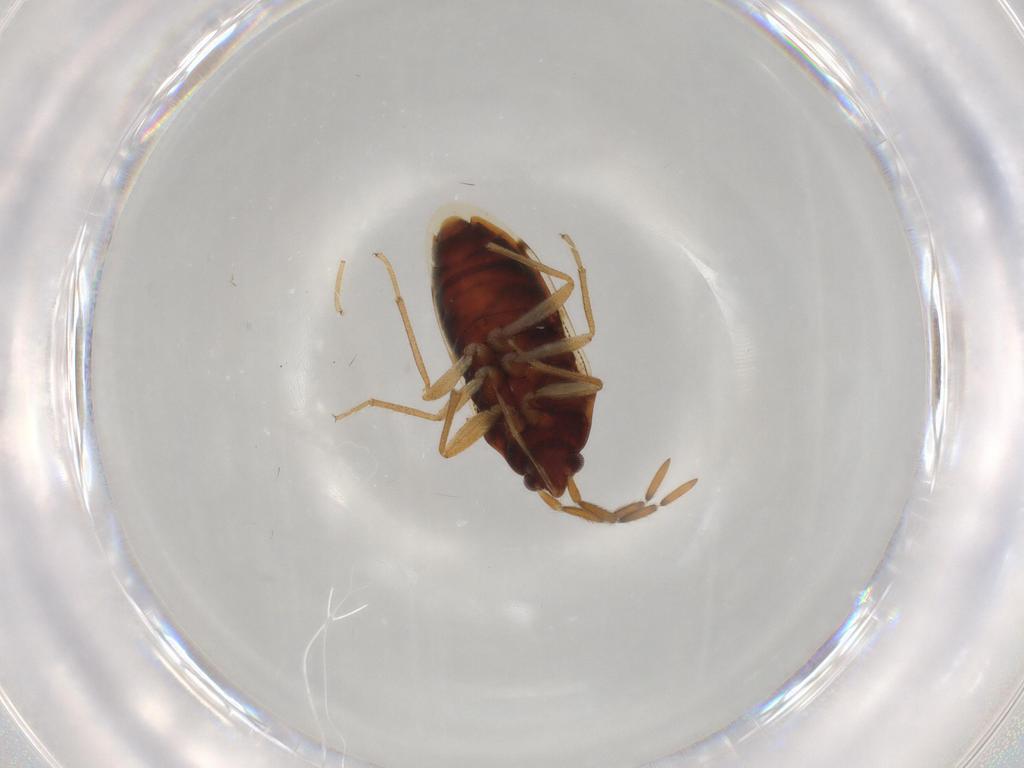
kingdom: Animalia
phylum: Arthropoda
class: Insecta
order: Hemiptera
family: Rhyparochromidae
